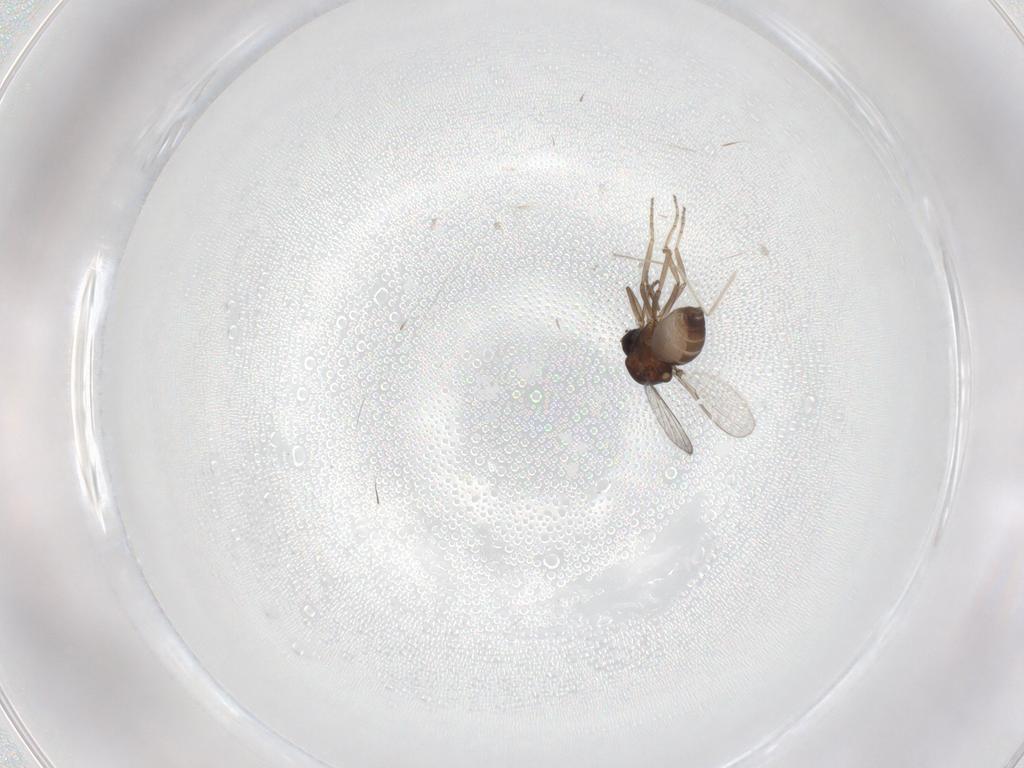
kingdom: Animalia
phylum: Arthropoda
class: Insecta
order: Diptera
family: Ceratopogonidae
